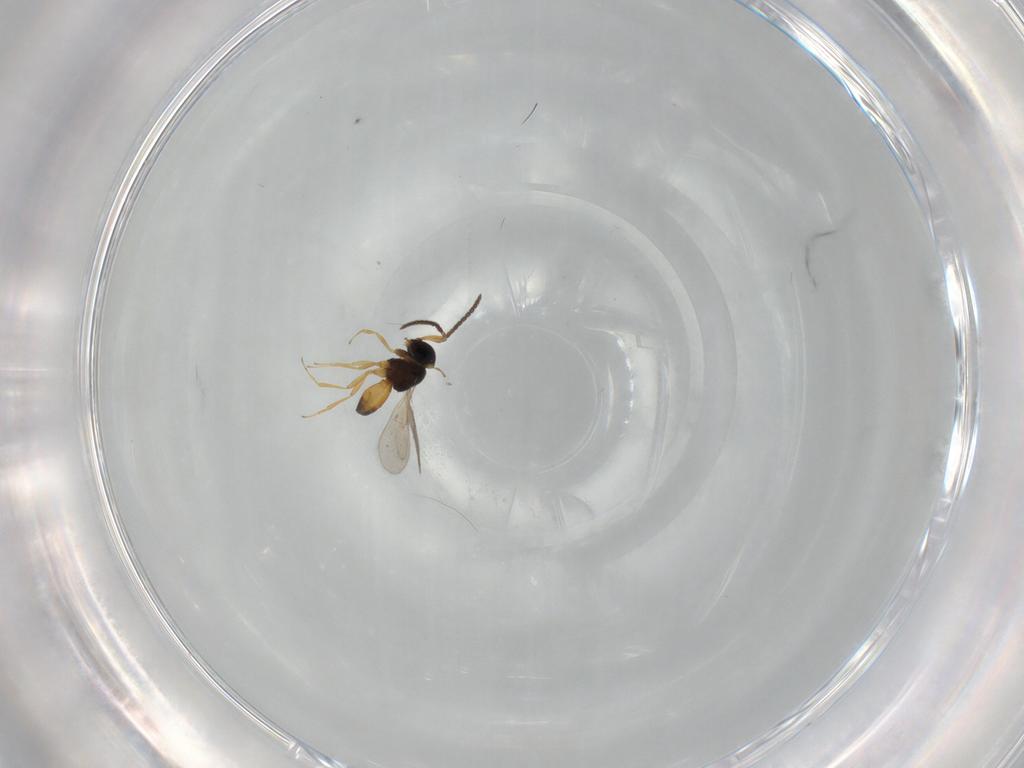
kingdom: Animalia
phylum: Arthropoda
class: Insecta
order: Hymenoptera
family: Scelionidae
